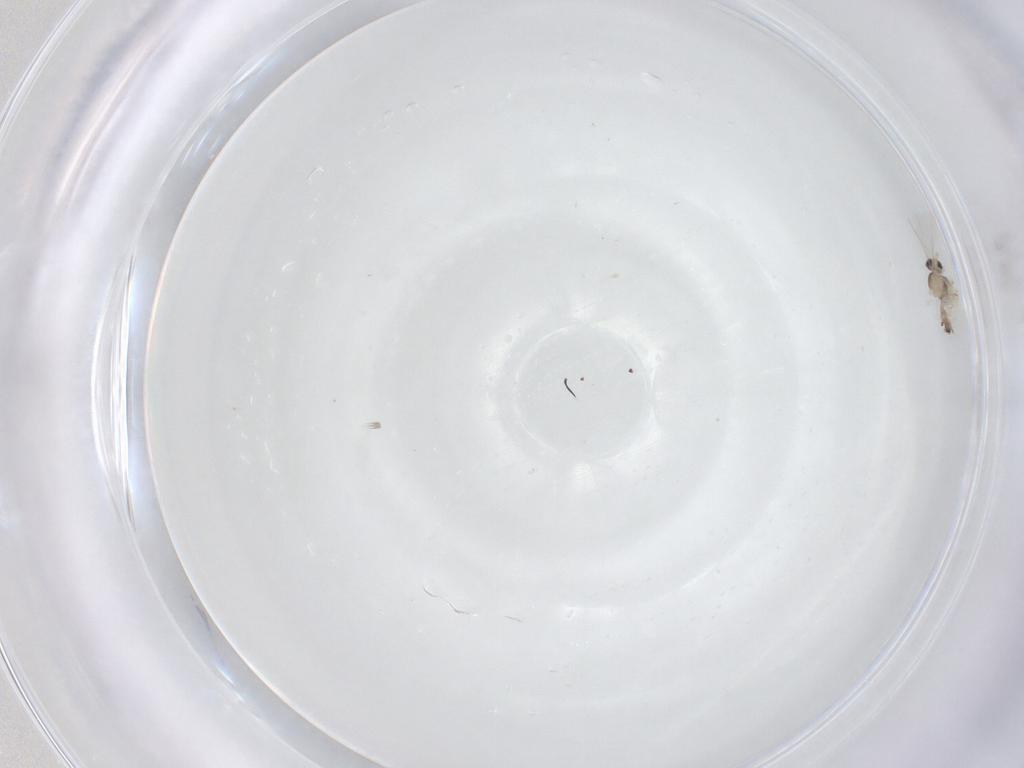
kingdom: Animalia
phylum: Arthropoda
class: Insecta
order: Diptera
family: Cecidomyiidae
